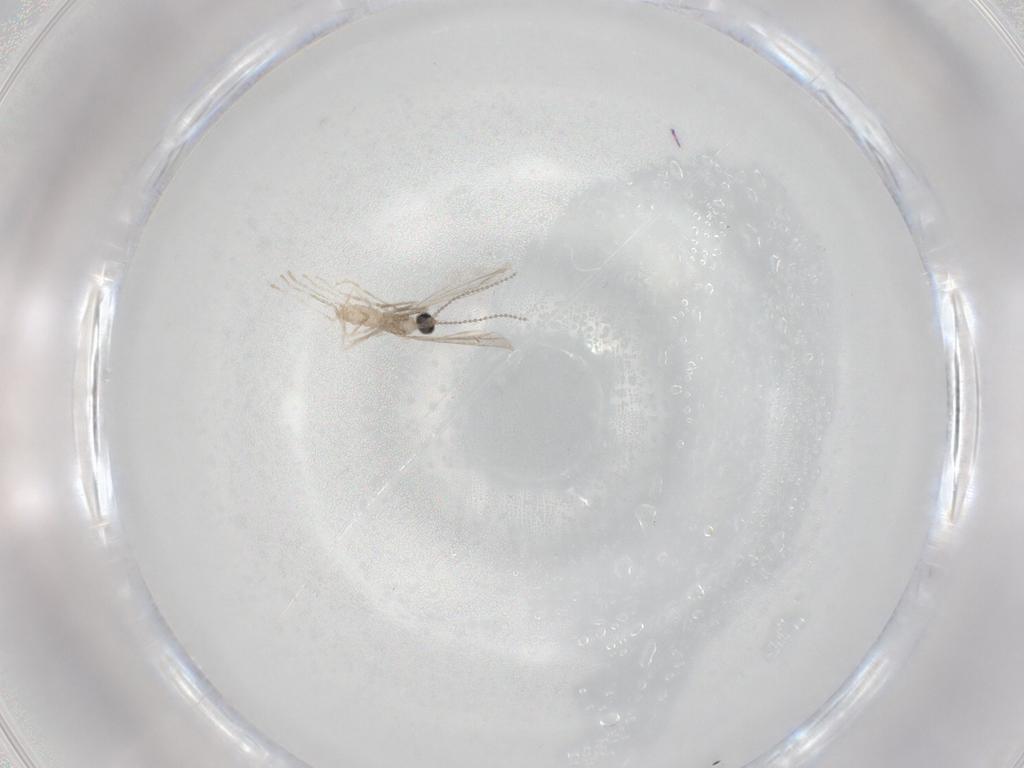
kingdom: Animalia
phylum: Arthropoda
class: Insecta
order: Diptera
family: Cecidomyiidae
